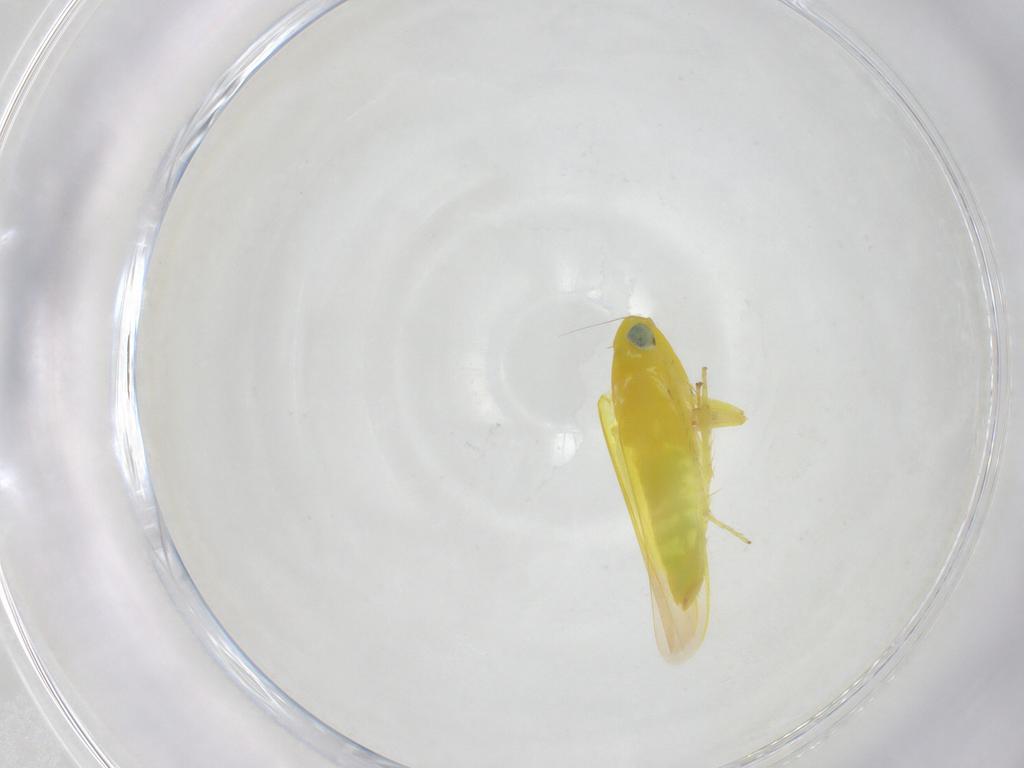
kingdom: Animalia
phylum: Arthropoda
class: Insecta
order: Hemiptera
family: Cicadellidae
